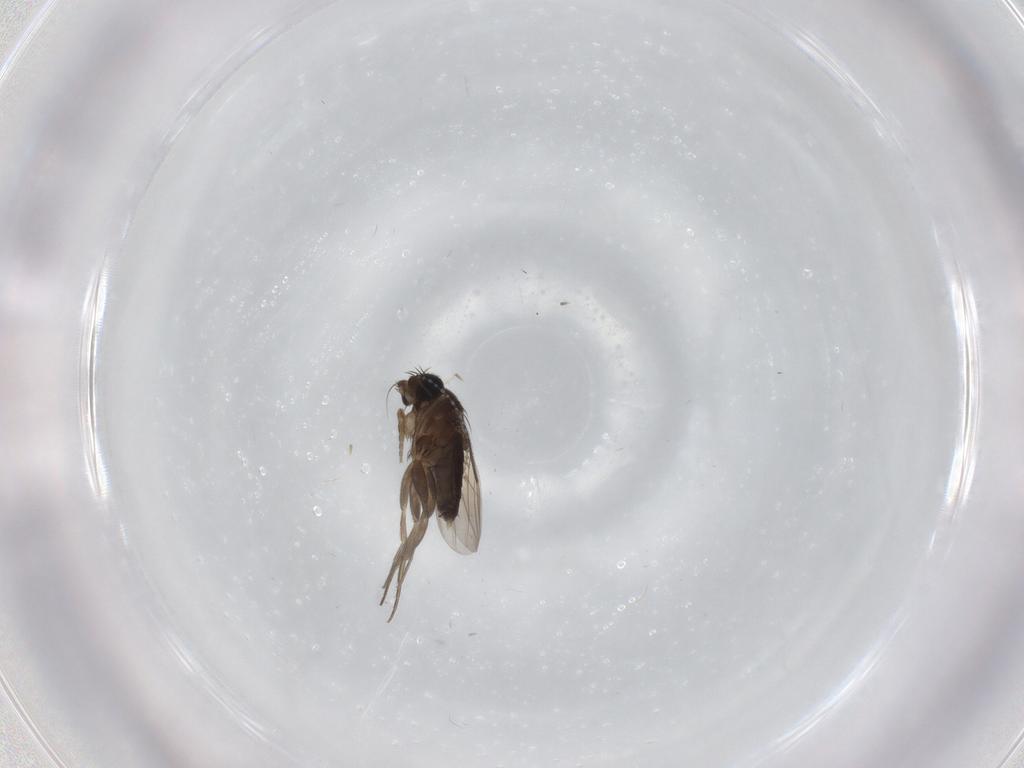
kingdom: Animalia
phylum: Arthropoda
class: Insecta
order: Diptera
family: Phoridae
